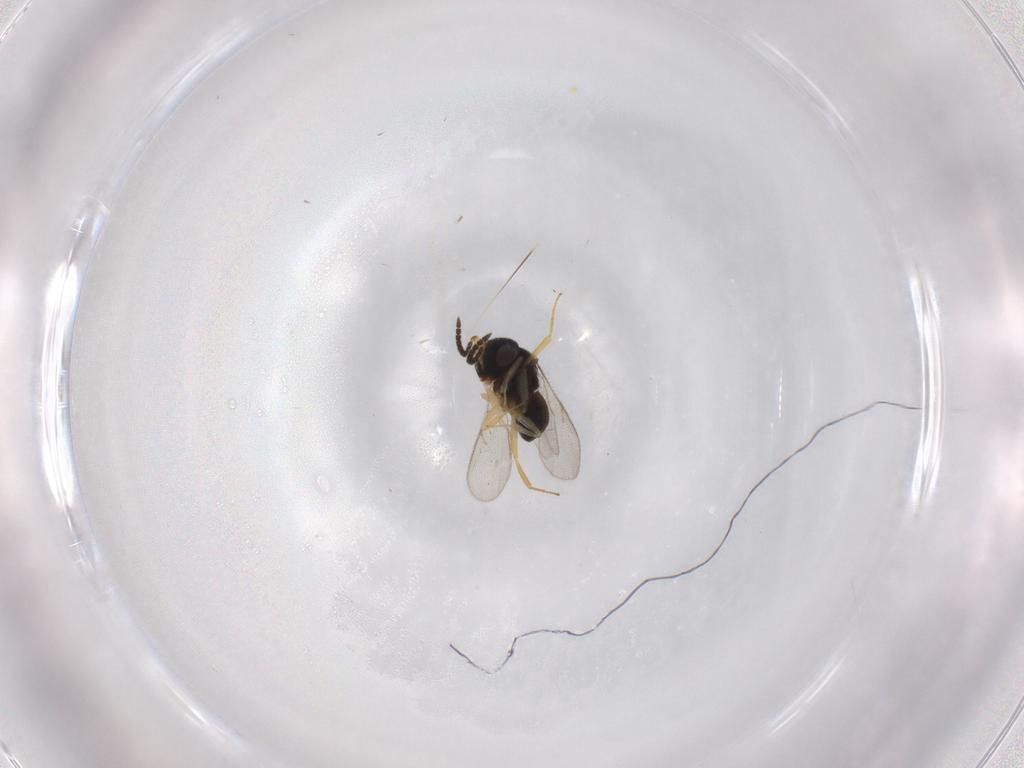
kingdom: Animalia
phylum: Arthropoda
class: Insecta
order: Hymenoptera
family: Scelionidae
